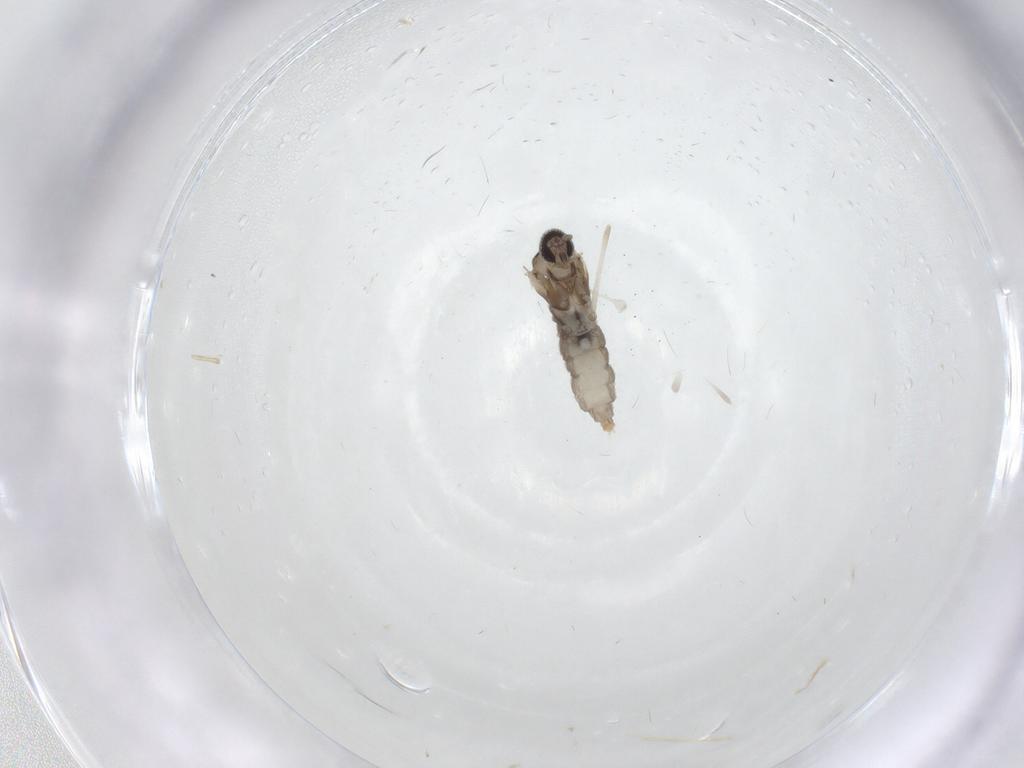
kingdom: Animalia
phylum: Arthropoda
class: Insecta
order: Diptera
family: Cecidomyiidae
